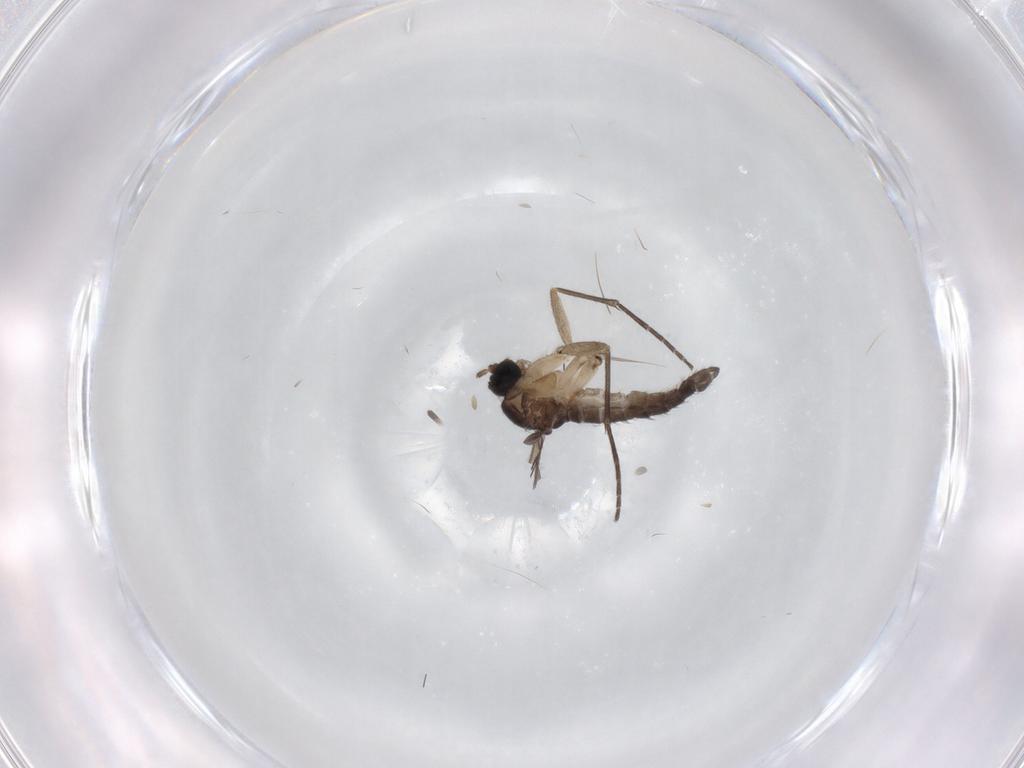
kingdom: Animalia
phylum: Arthropoda
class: Insecta
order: Diptera
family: Sciaridae
